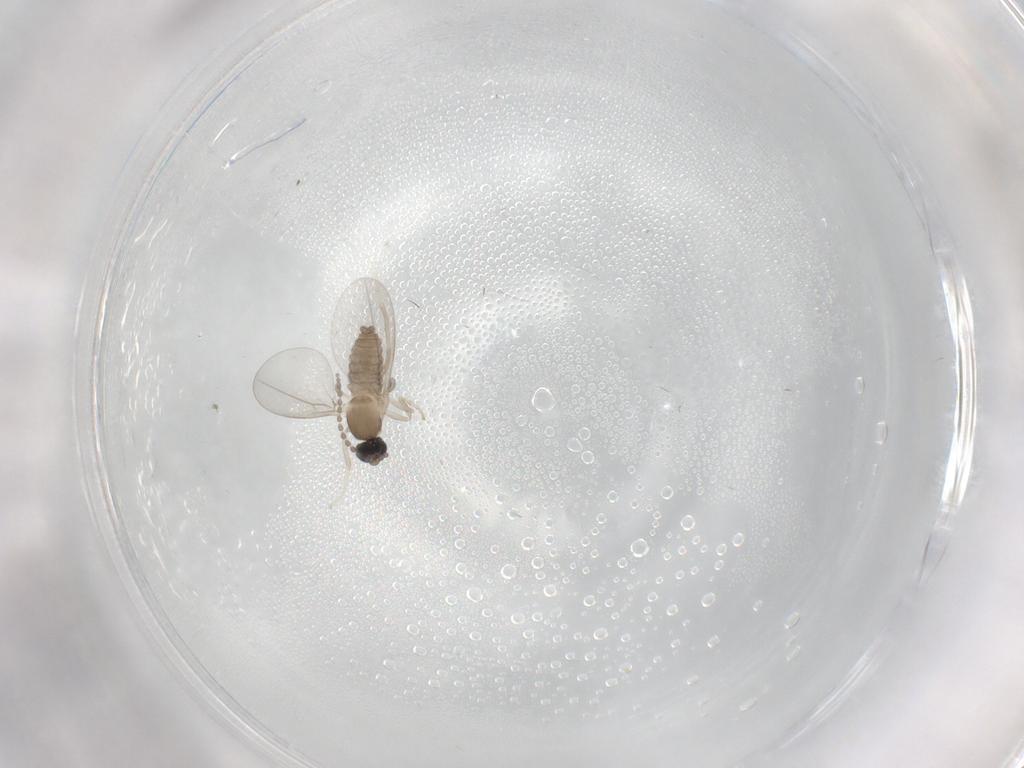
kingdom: Animalia
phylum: Arthropoda
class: Insecta
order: Diptera
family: Cecidomyiidae
